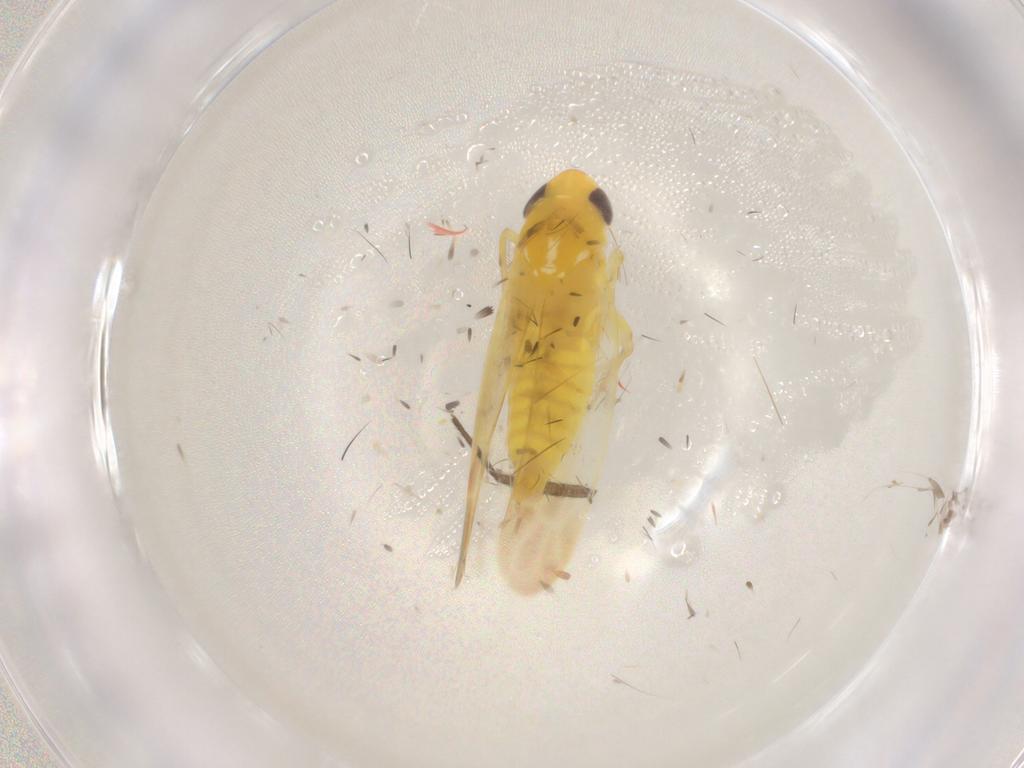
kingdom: Animalia
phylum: Arthropoda
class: Insecta
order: Hemiptera
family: Cicadellidae
